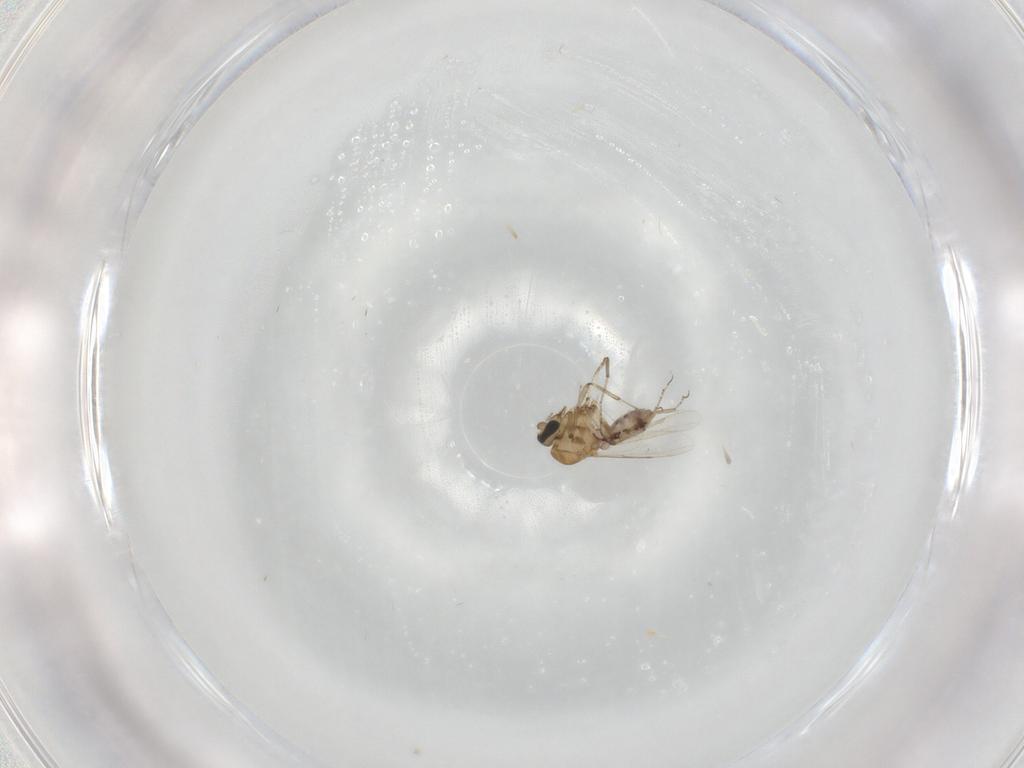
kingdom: Animalia
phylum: Arthropoda
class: Insecta
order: Diptera
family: Ceratopogonidae
